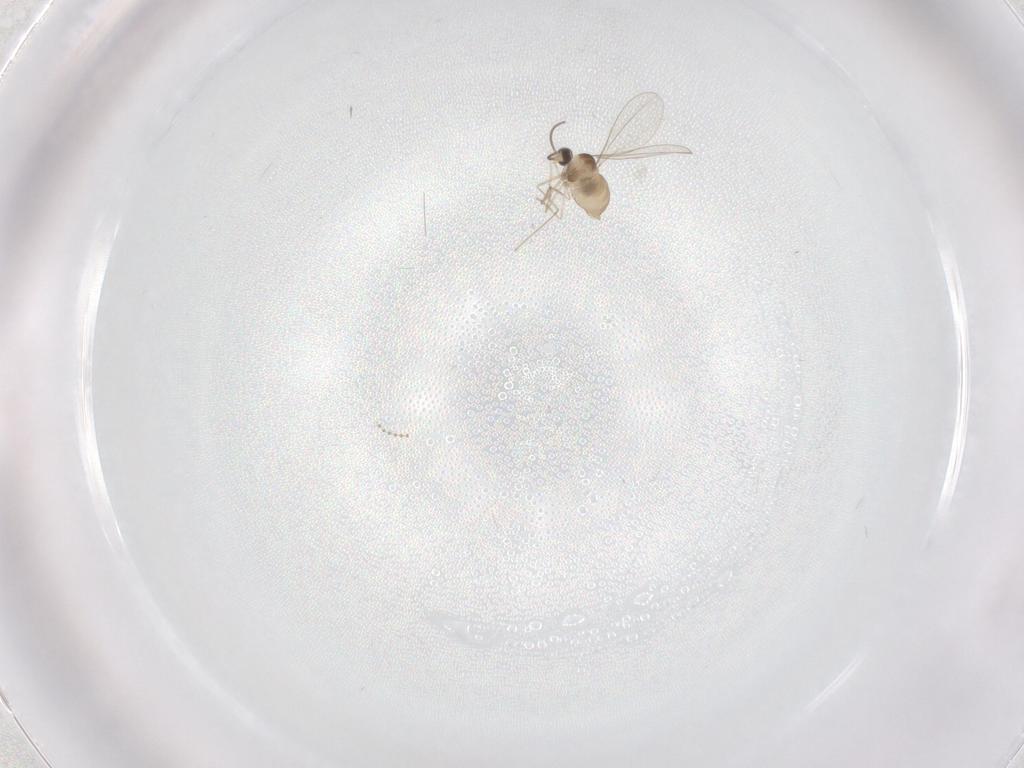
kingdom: Animalia
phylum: Arthropoda
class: Insecta
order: Diptera
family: Cecidomyiidae
